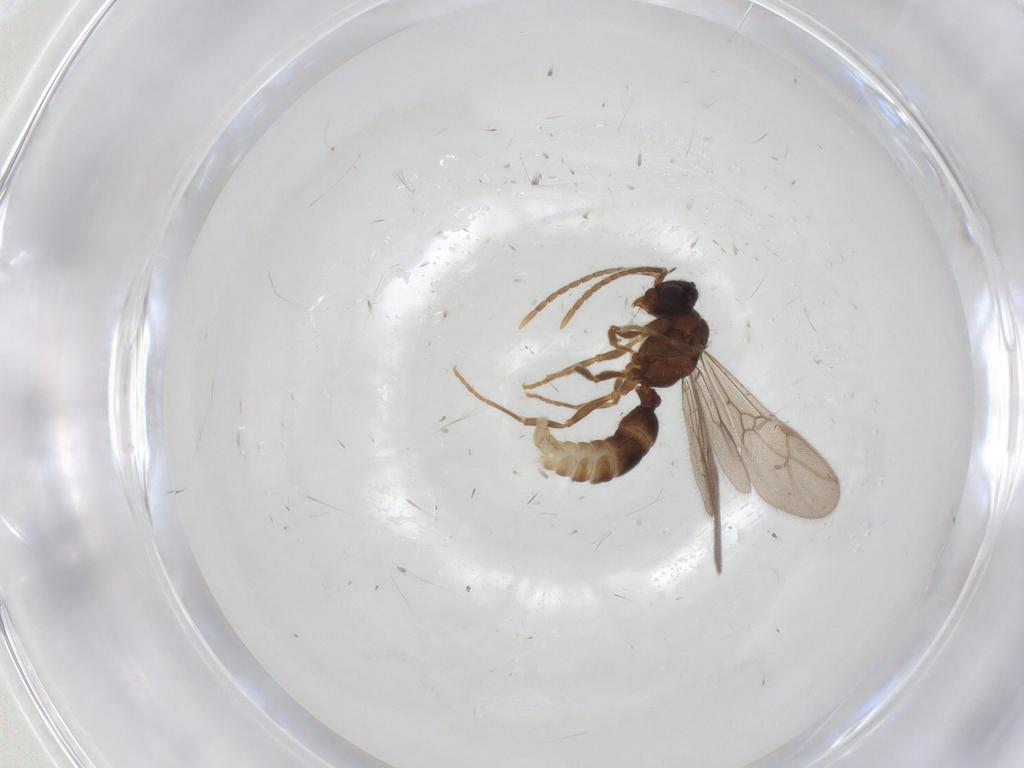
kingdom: Animalia
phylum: Arthropoda
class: Insecta
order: Hymenoptera
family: Formicidae
